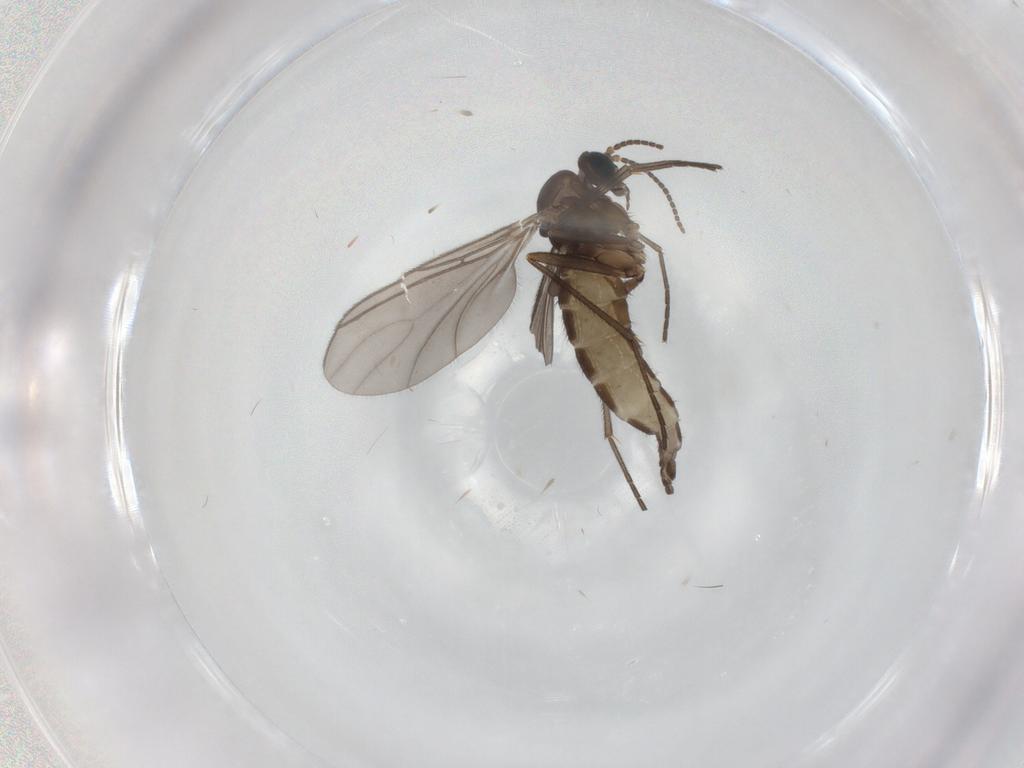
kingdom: Animalia
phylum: Arthropoda
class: Insecta
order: Diptera
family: Sciaridae
